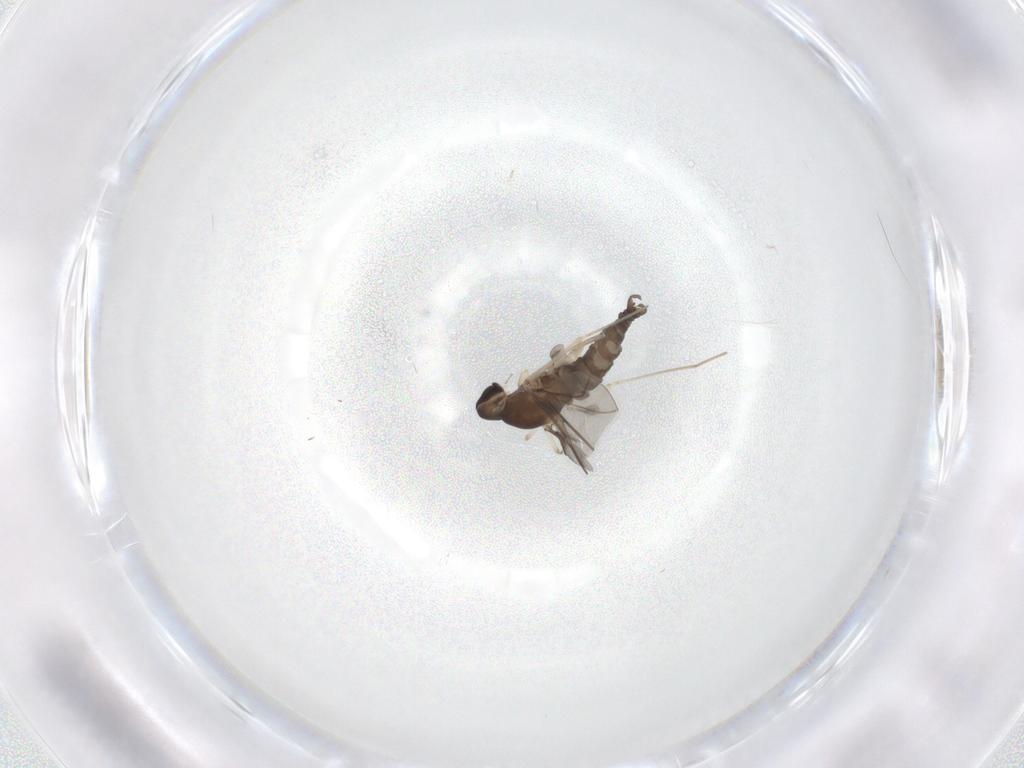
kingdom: Animalia
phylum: Arthropoda
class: Insecta
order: Diptera
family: Cecidomyiidae
